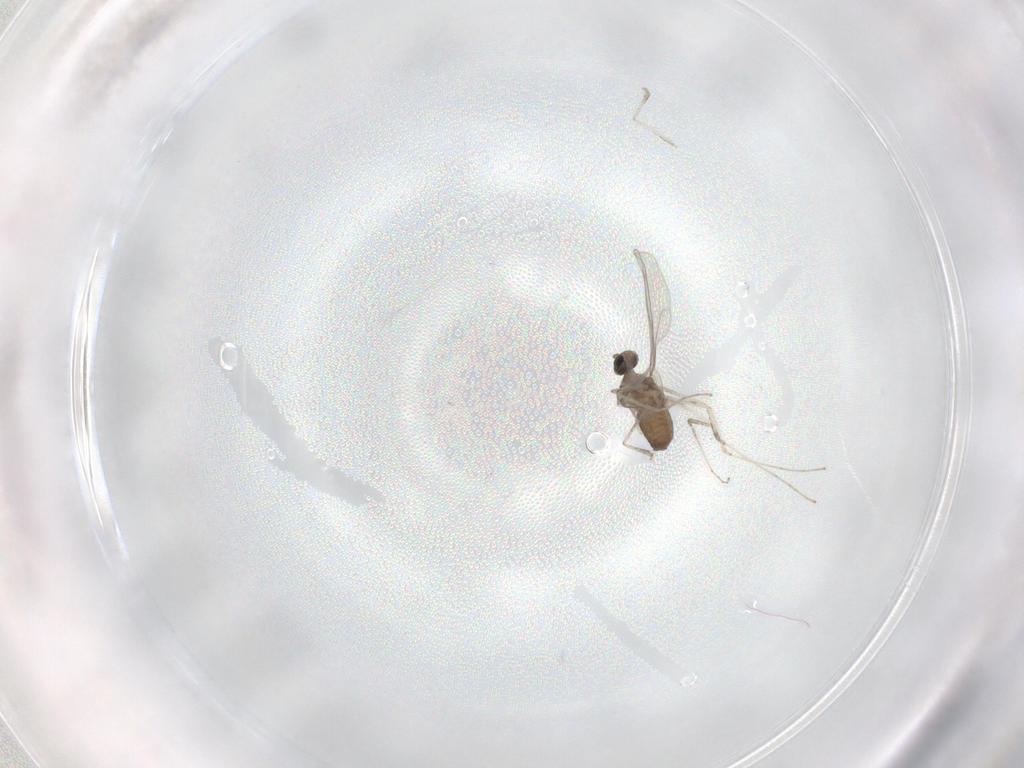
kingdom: Animalia
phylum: Arthropoda
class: Insecta
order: Diptera
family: Cecidomyiidae
